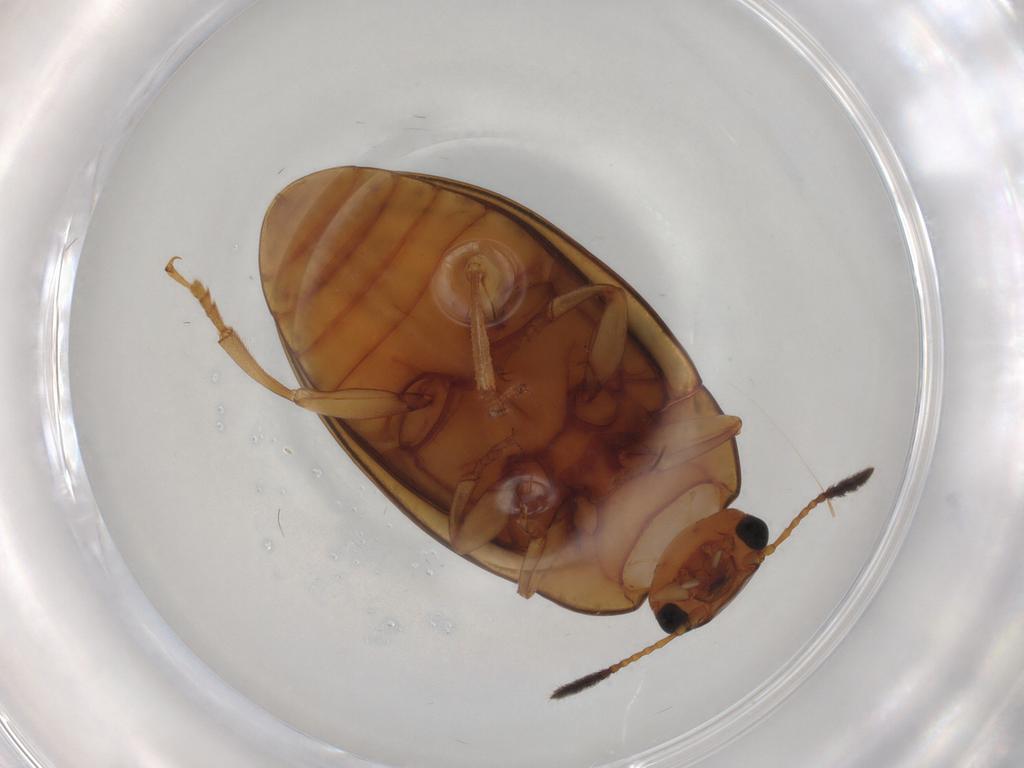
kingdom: Animalia
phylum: Arthropoda
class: Insecta
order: Coleoptera
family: Erotylidae
